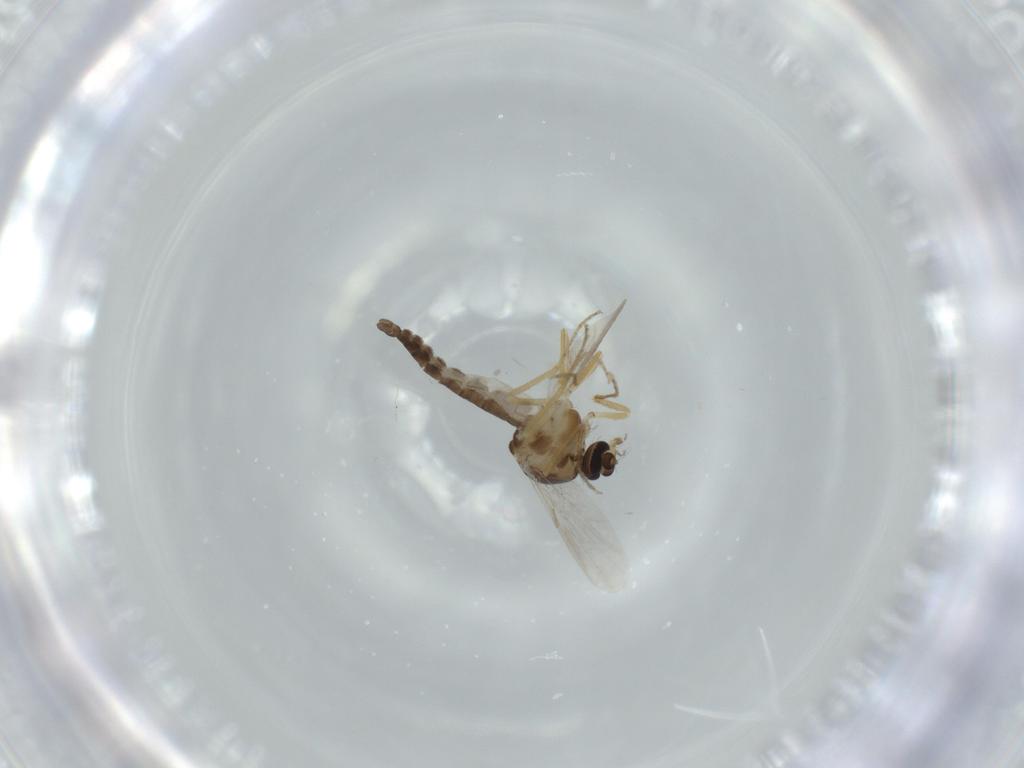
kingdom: Animalia
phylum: Arthropoda
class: Insecta
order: Diptera
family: Ceratopogonidae
